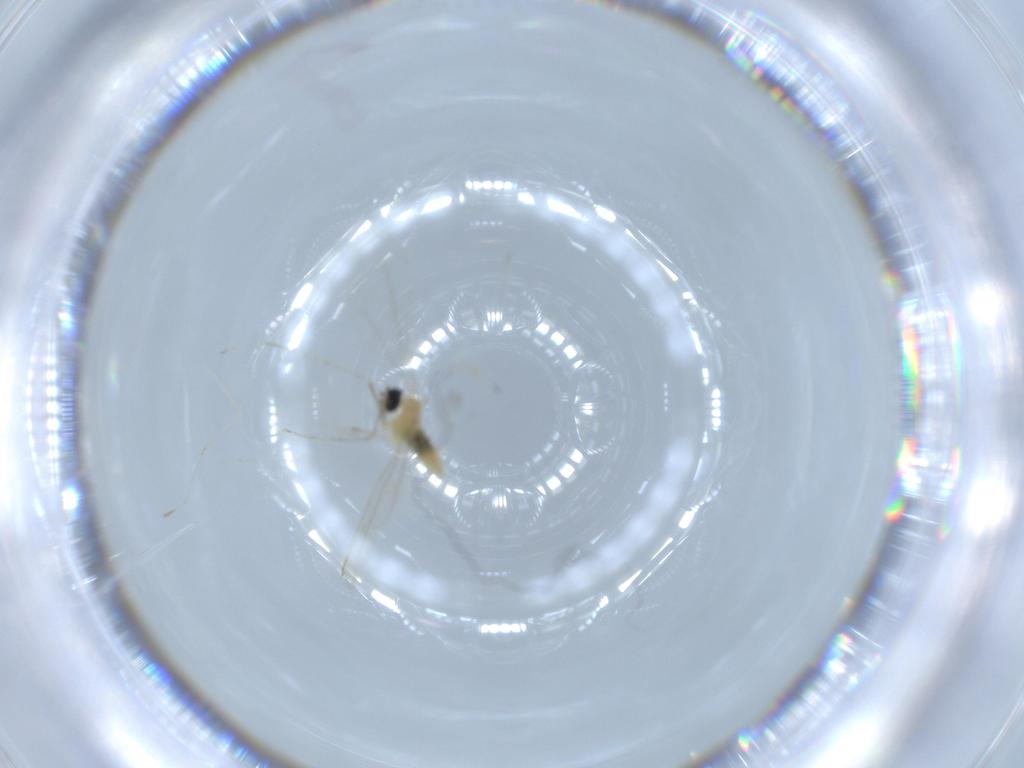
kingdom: Animalia
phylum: Arthropoda
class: Insecta
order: Diptera
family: Cecidomyiidae
